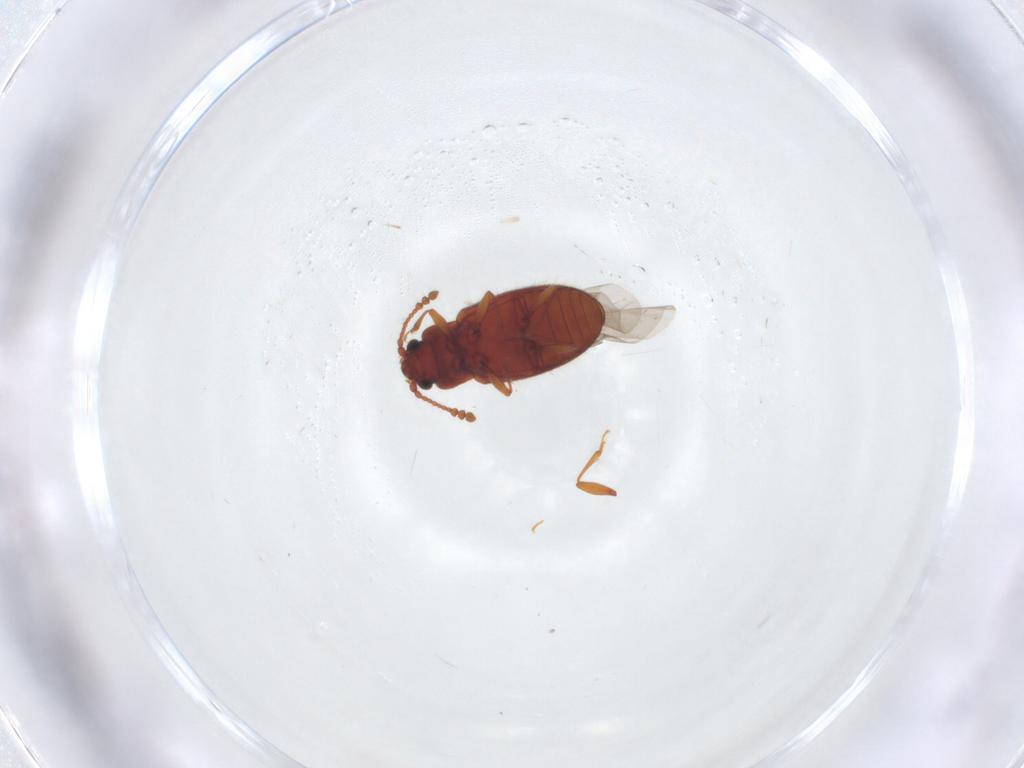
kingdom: Animalia
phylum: Arthropoda
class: Insecta
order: Coleoptera
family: Cryptophagidae
